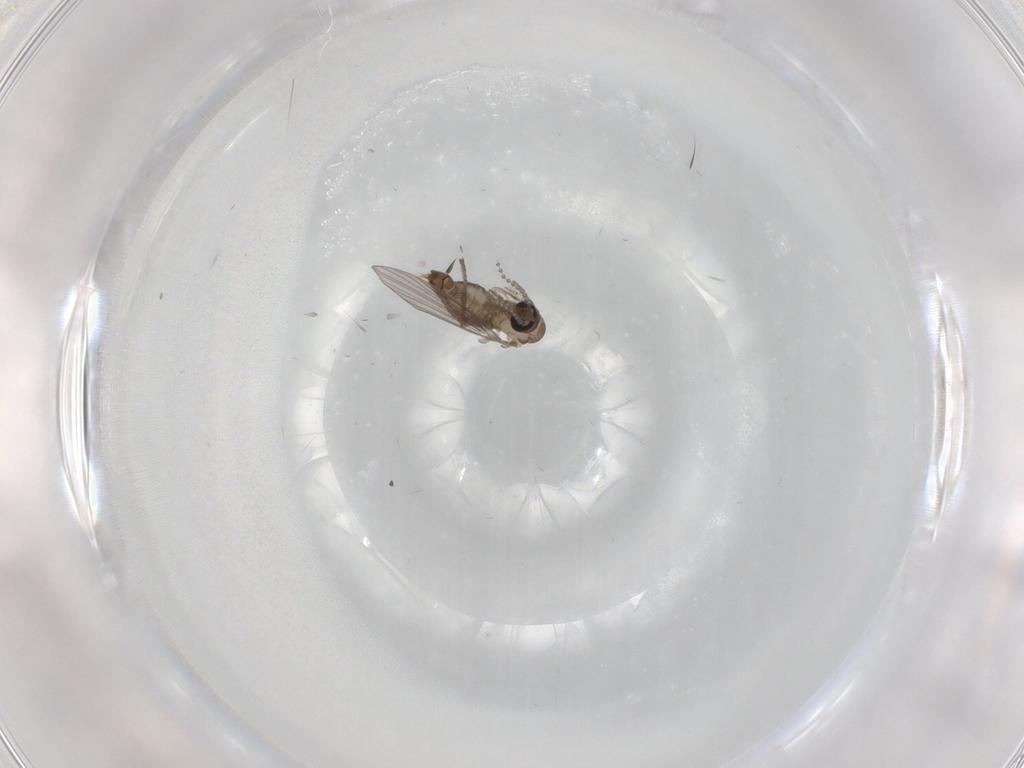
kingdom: Animalia
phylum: Arthropoda
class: Insecta
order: Diptera
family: Psychodidae
